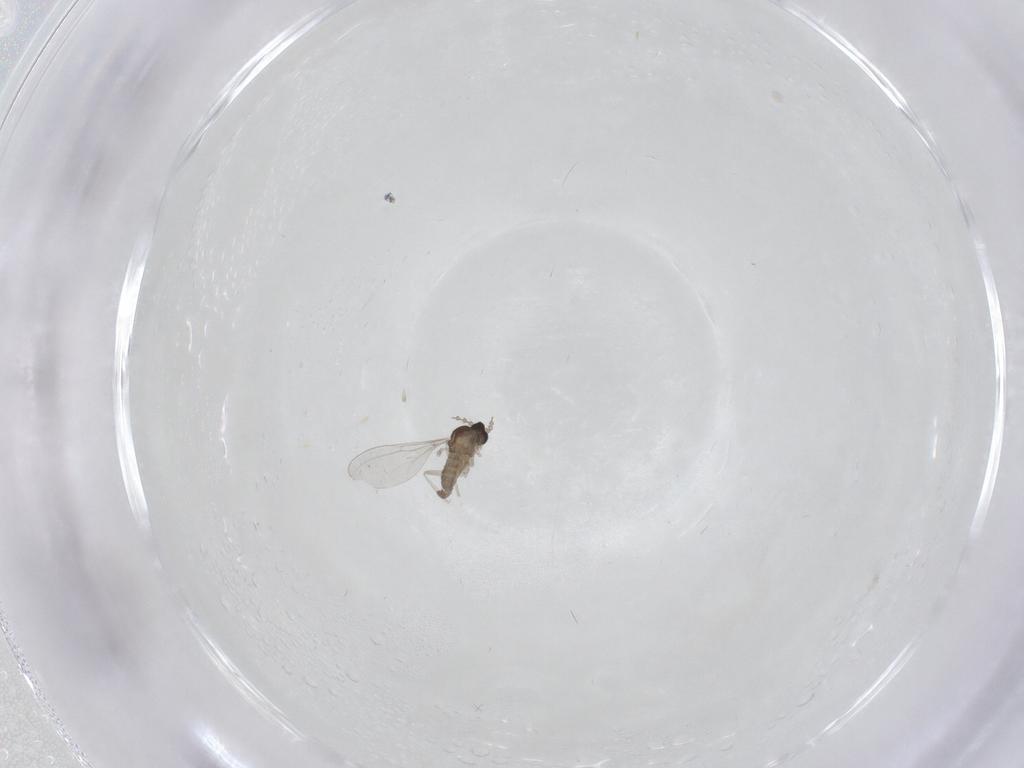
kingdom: Animalia
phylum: Arthropoda
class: Insecta
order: Diptera
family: Cecidomyiidae
